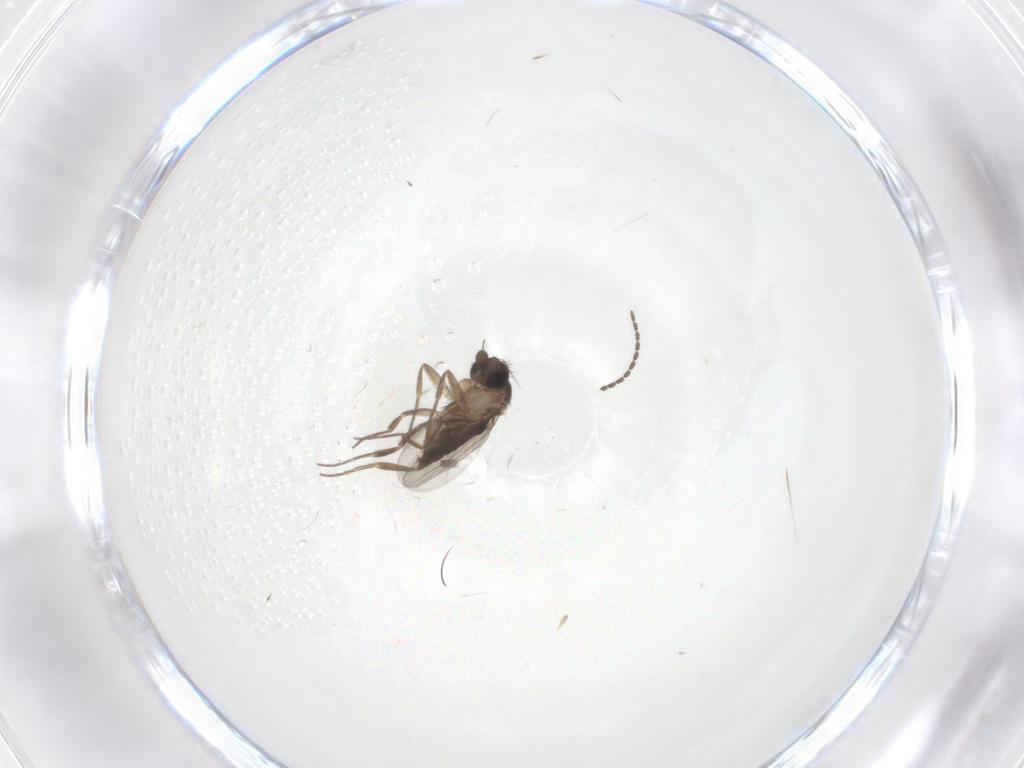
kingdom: Animalia
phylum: Arthropoda
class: Insecta
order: Diptera
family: Phoridae
